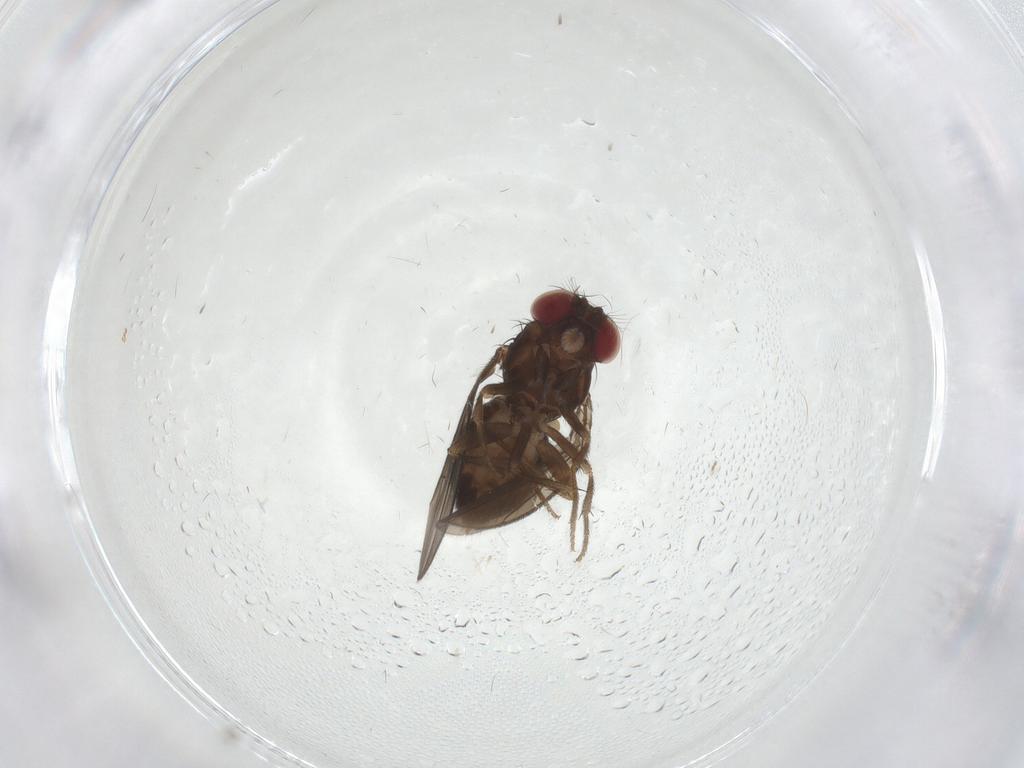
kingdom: Animalia
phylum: Arthropoda
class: Insecta
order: Diptera
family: Drosophilidae
